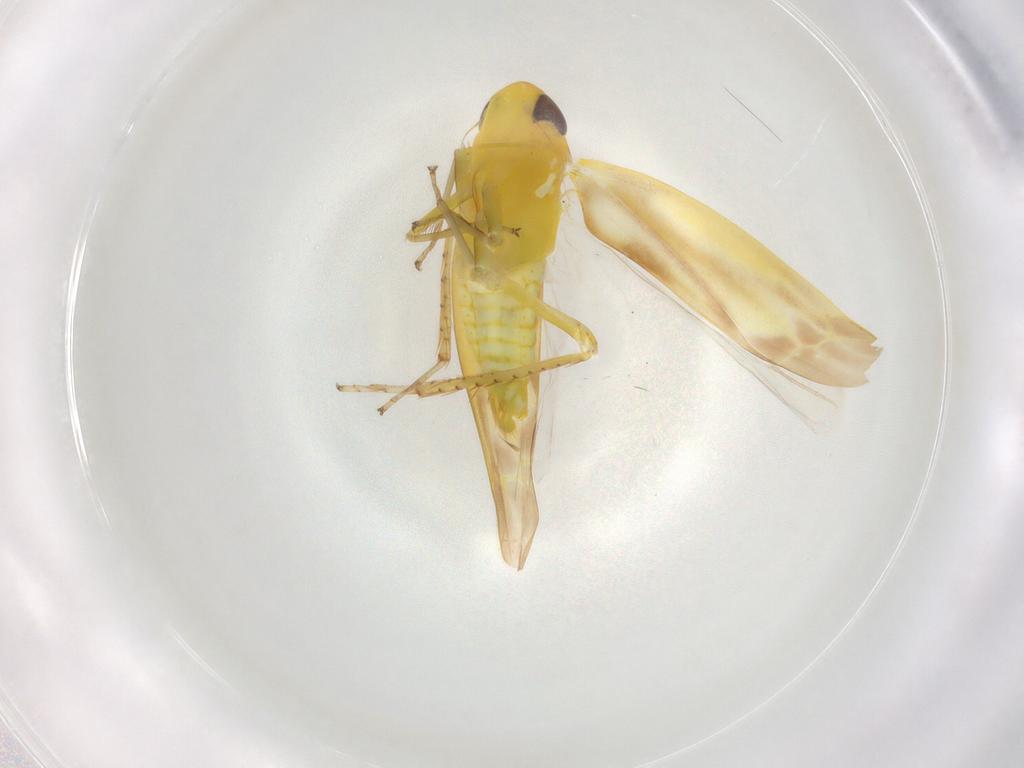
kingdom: Animalia
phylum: Arthropoda
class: Insecta
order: Hemiptera
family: Cicadellidae
